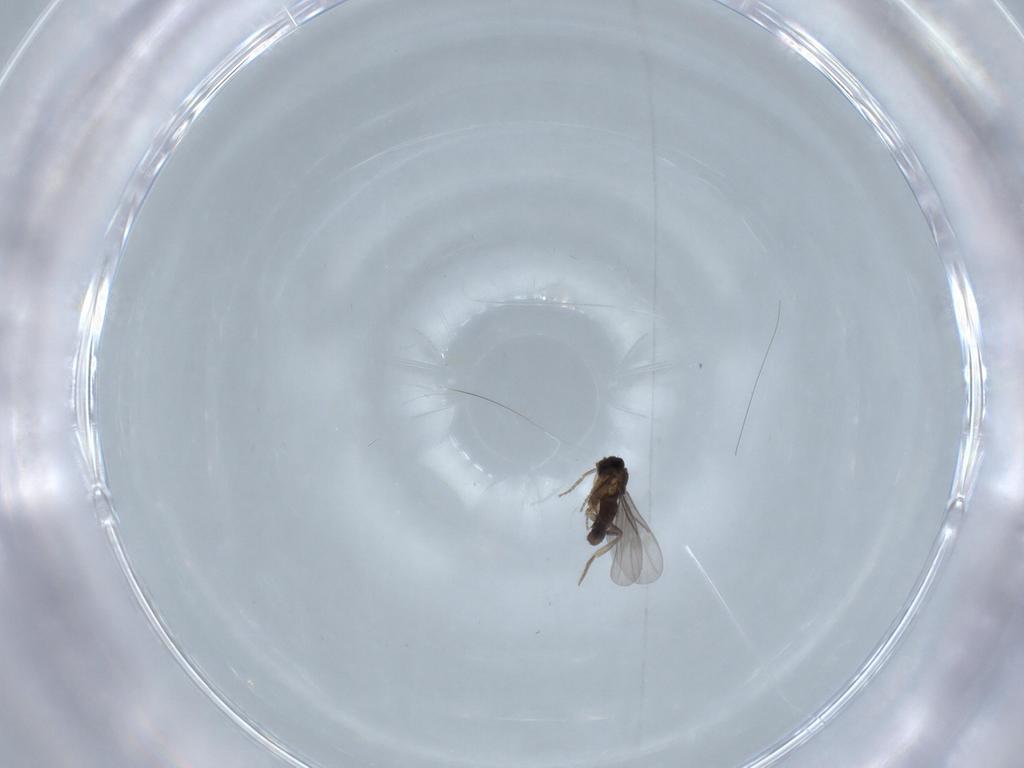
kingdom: Animalia
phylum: Arthropoda
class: Insecta
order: Diptera
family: Psychodidae
